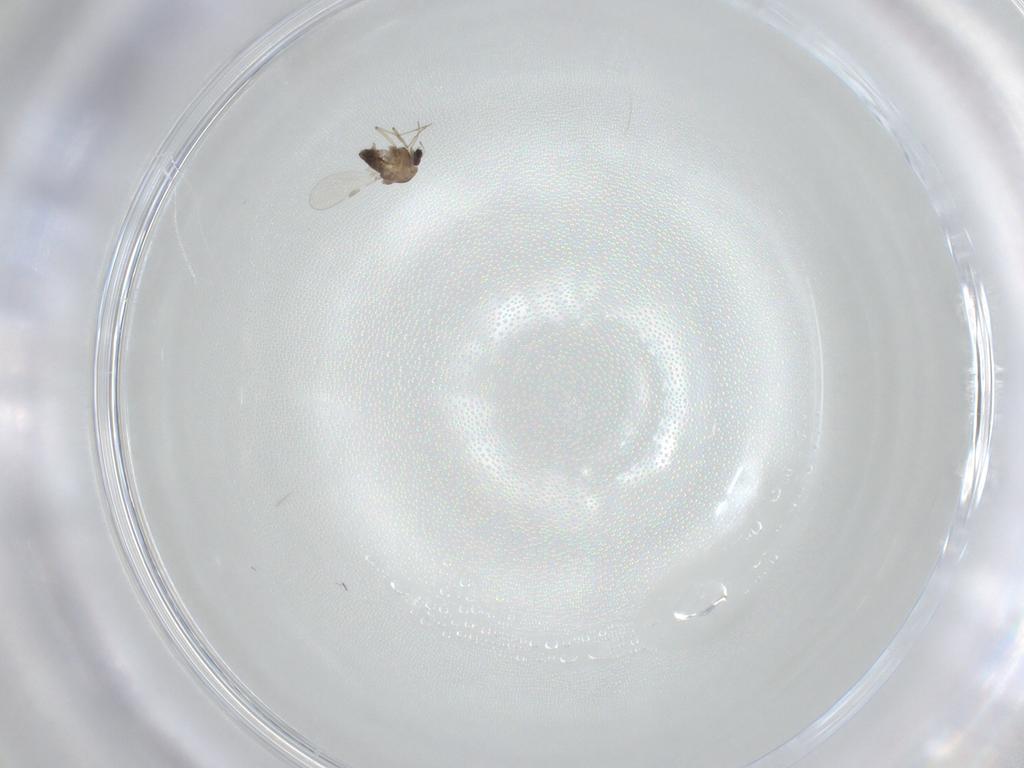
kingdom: Animalia
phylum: Arthropoda
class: Insecta
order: Diptera
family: Chironomidae
